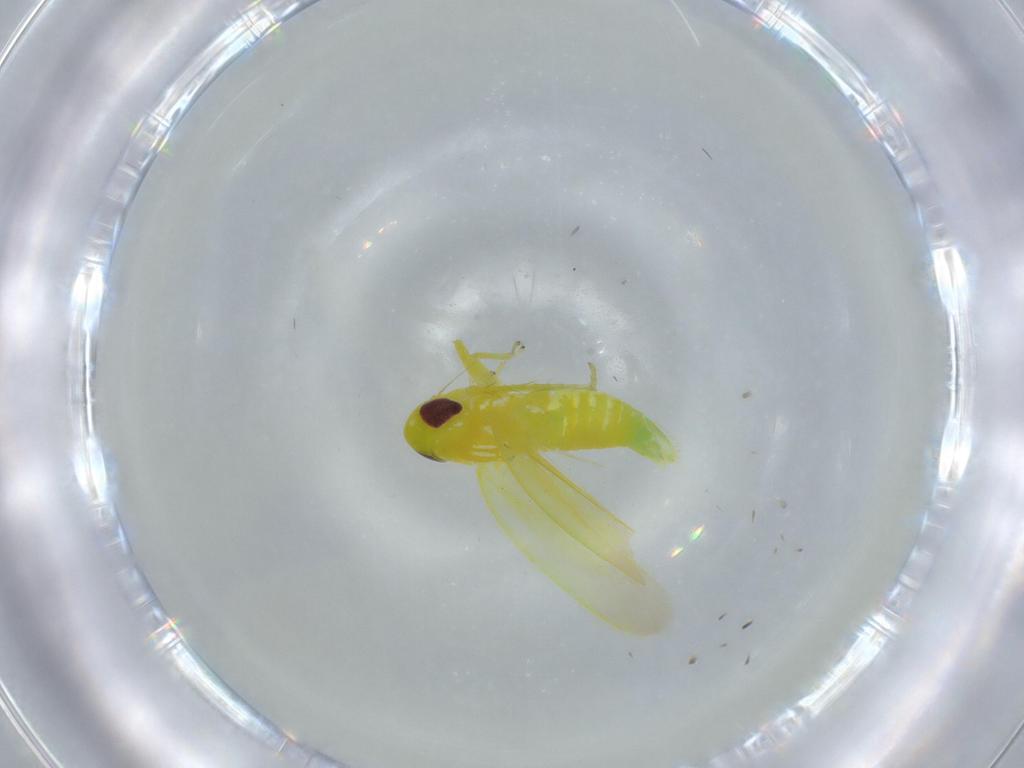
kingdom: Animalia
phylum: Arthropoda
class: Insecta
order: Hemiptera
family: Cicadellidae
